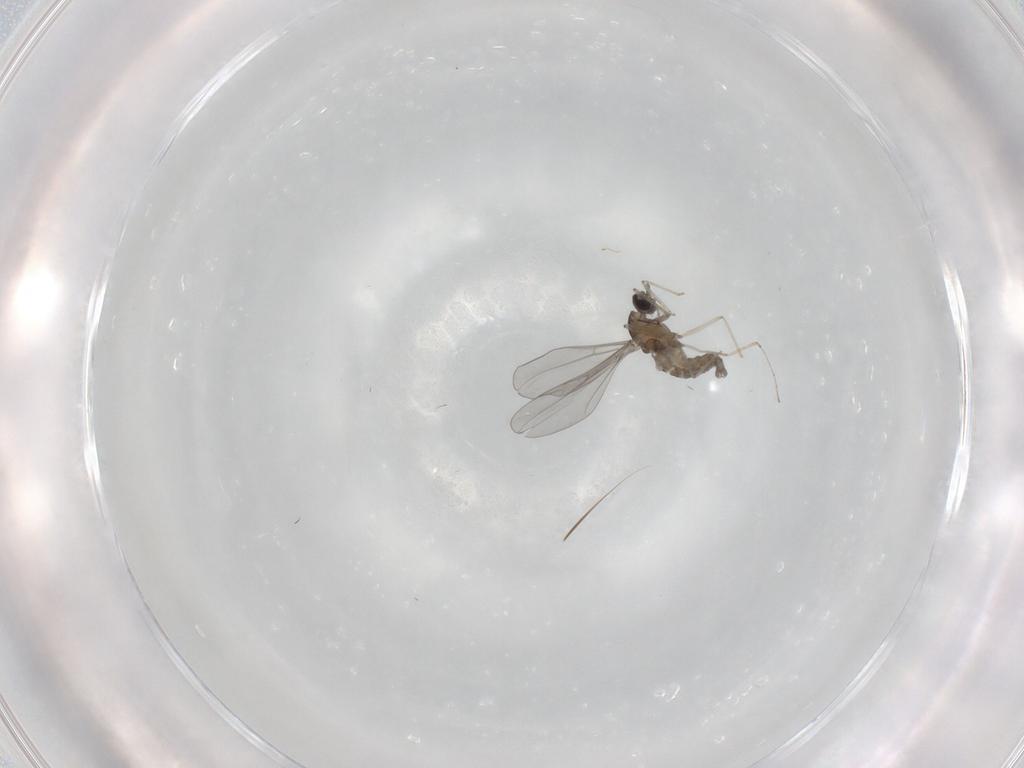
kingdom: Animalia
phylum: Arthropoda
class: Insecta
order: Diptera
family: Cecidomyiidae
